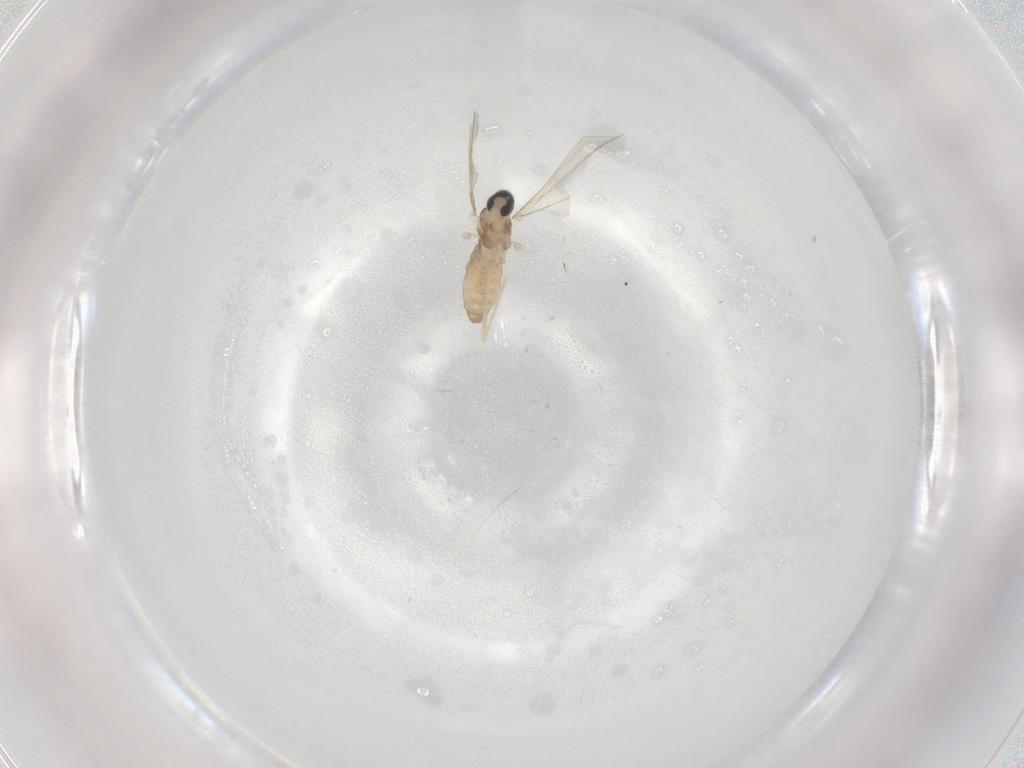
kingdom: Animalia
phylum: Arthropoda
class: Insecta
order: Diptera
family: Cecidomyiidae
